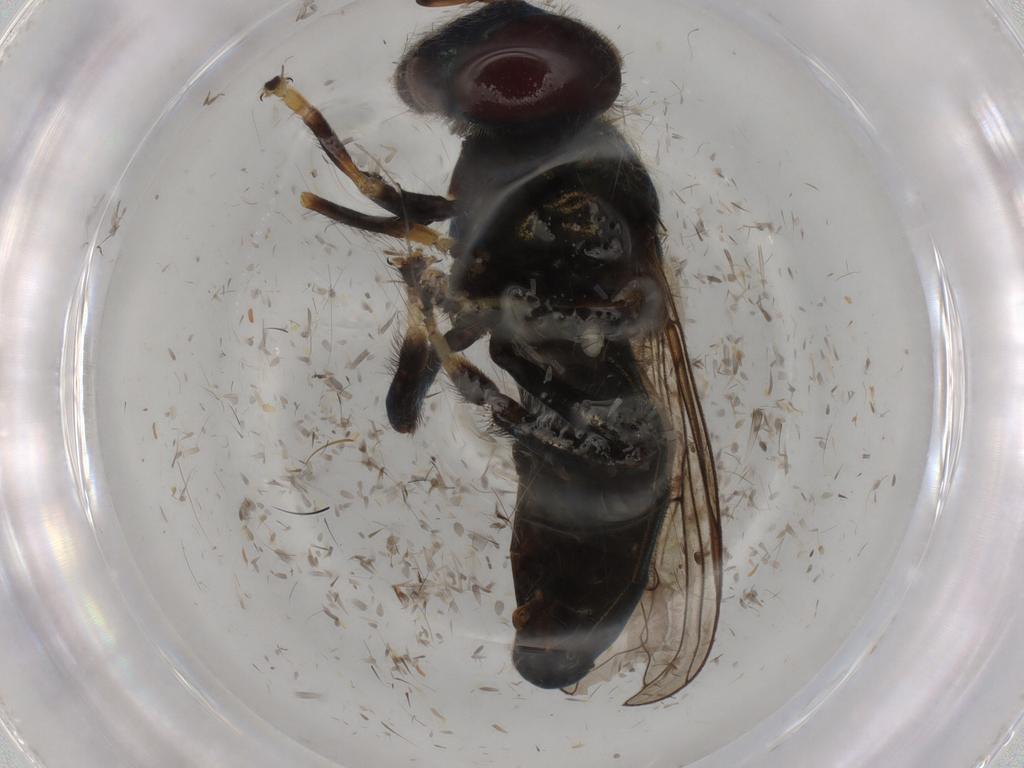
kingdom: Animalia
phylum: Arthropoda
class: Insecta
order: Diptera
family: Syrphidae
